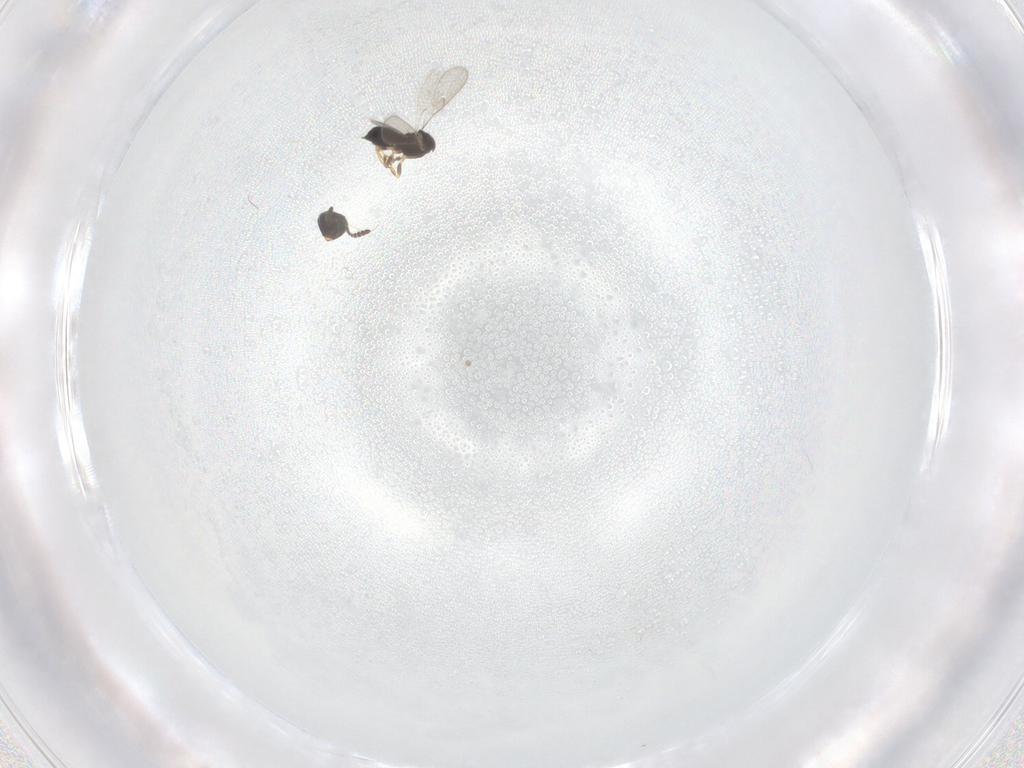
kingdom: Animalia
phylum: Arthropoda
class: Insecta
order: Hymenoptera
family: Scelionidae
